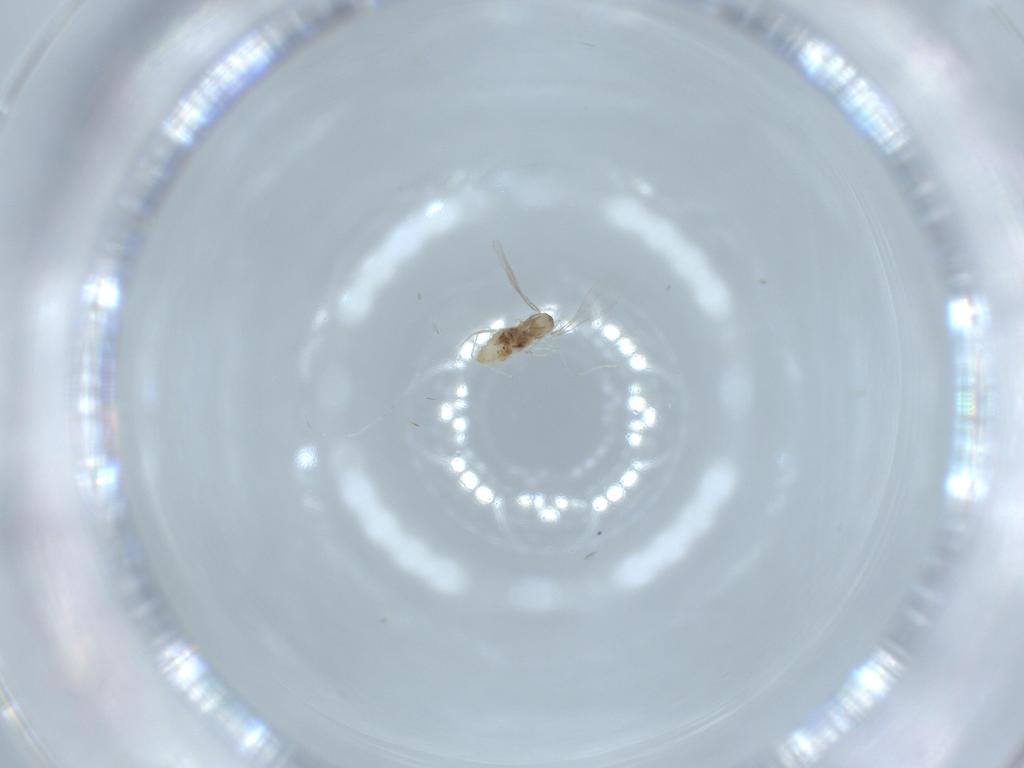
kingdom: Animalia
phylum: Arthropoda
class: Insecta
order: Diptera
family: Cecidomyiidae
